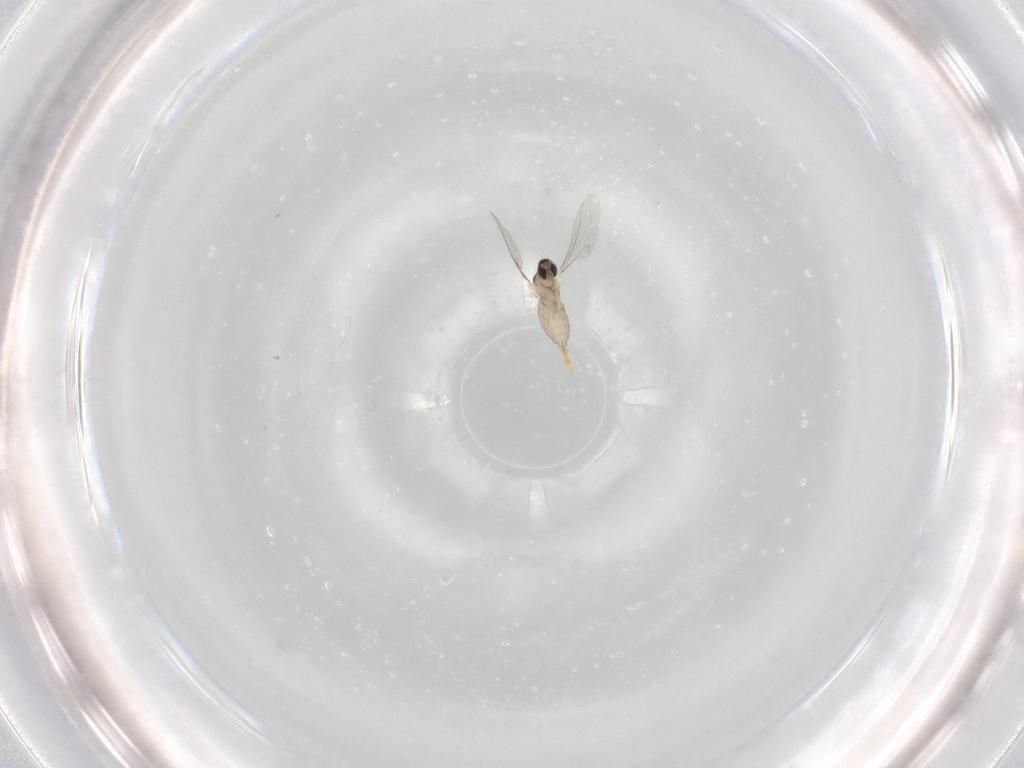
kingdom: Animalia
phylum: Arthropoda
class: Insecta
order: Diptera
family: Cecidomyiidae
